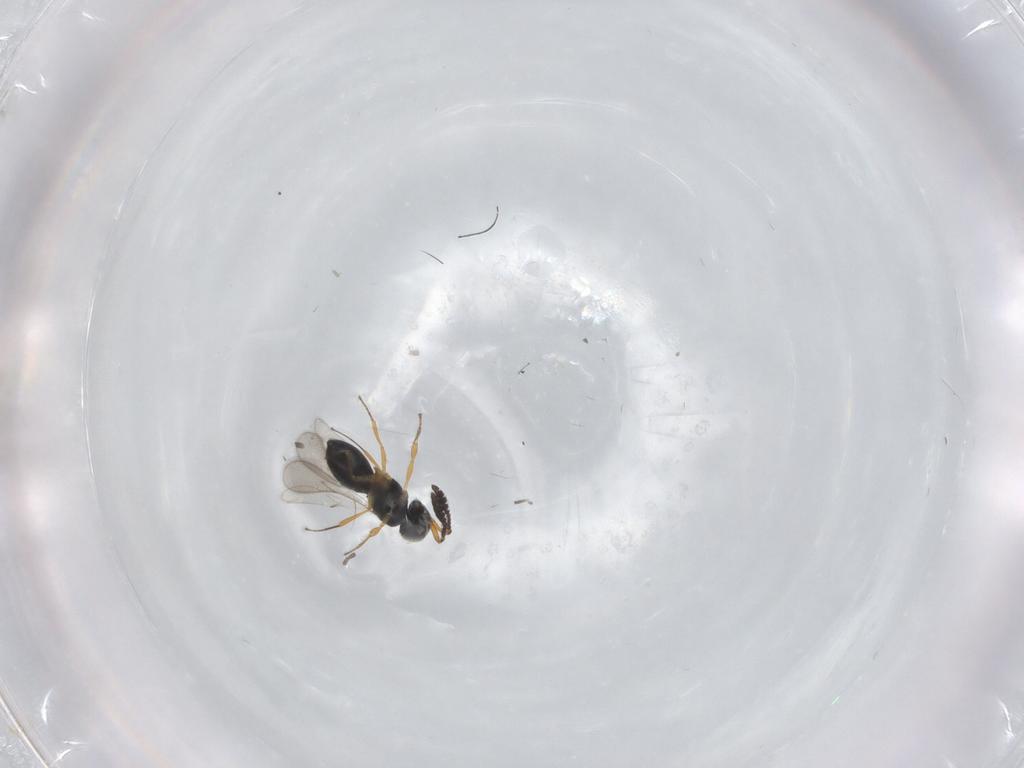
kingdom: Animalia
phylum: Arthropoda
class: Insecta
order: Hymenoptera
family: Scelionidae
